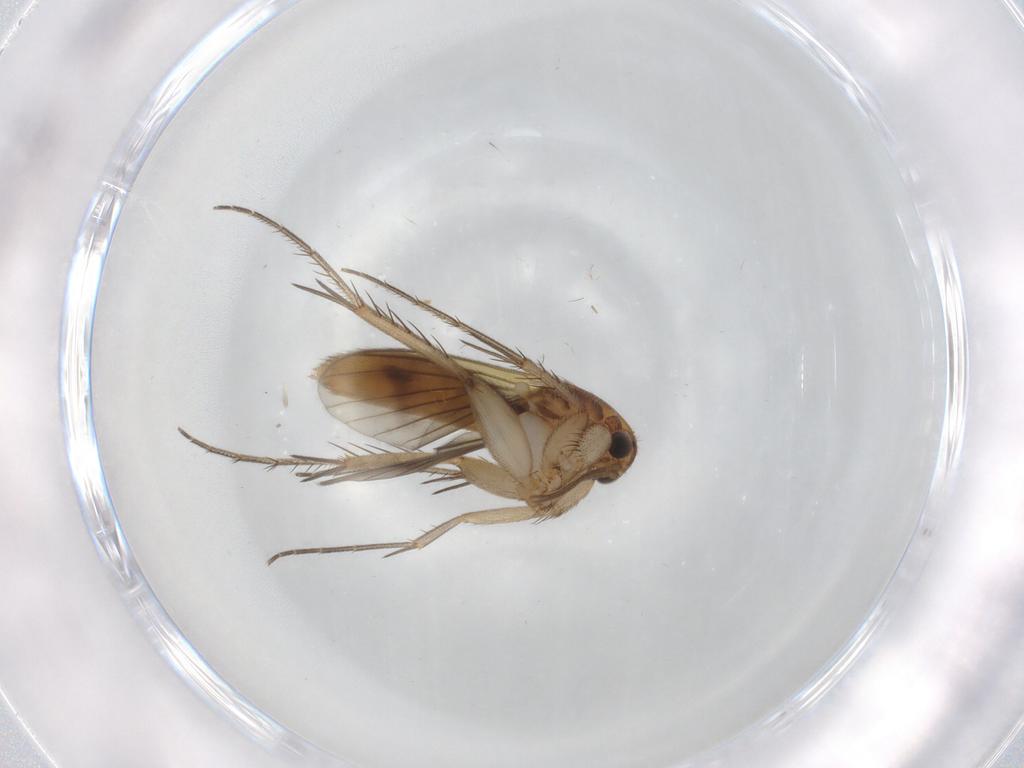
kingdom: Animalia
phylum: Arthropoda
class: Insecta
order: Diptera
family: Mycetophilidae
